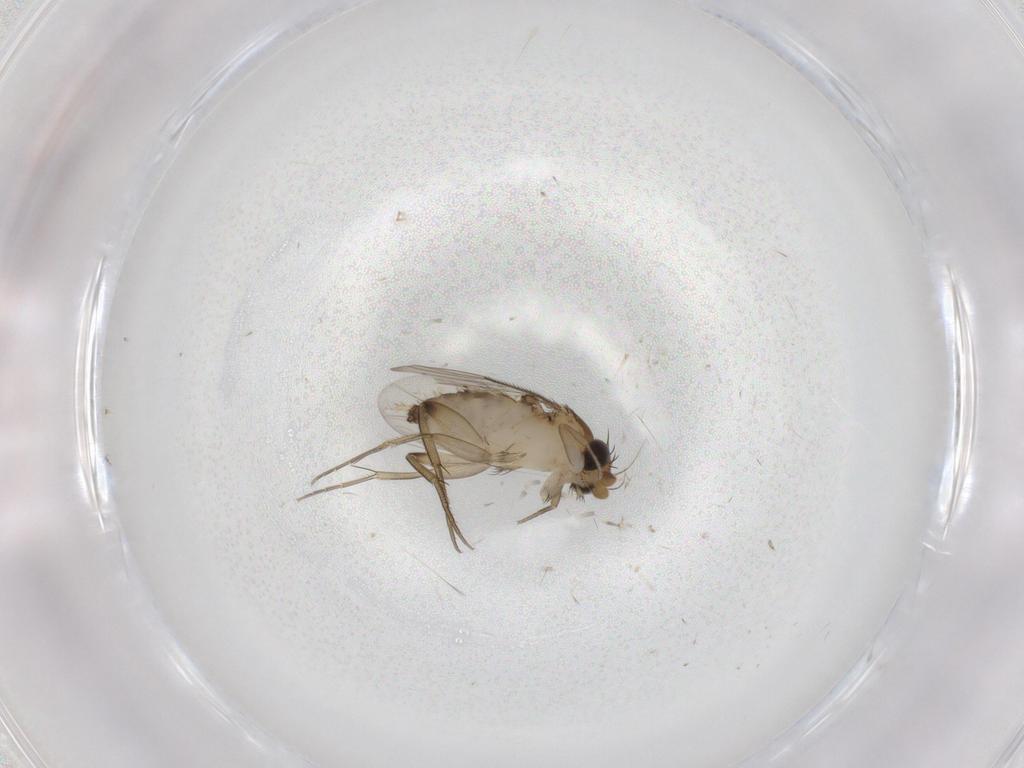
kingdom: Animalia
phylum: Arthropoda
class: Insecta
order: Diptera
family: Phoridae
